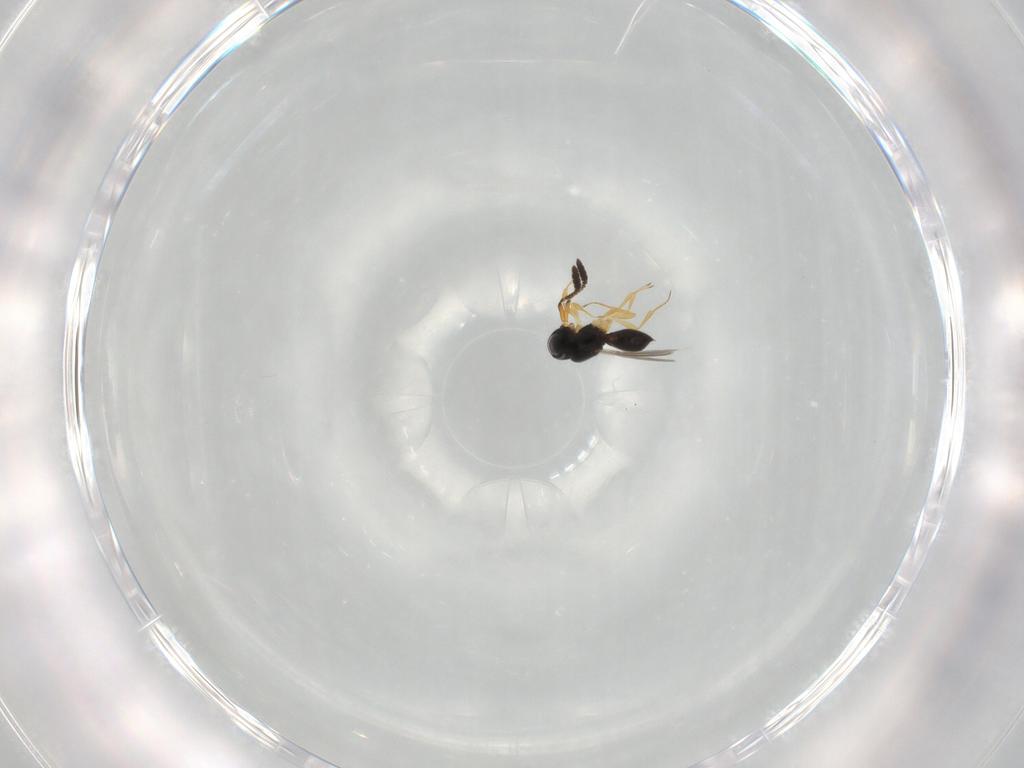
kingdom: Animalia
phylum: Arthropoda
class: Insecta
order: Hymenoptera
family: Scelionidae
